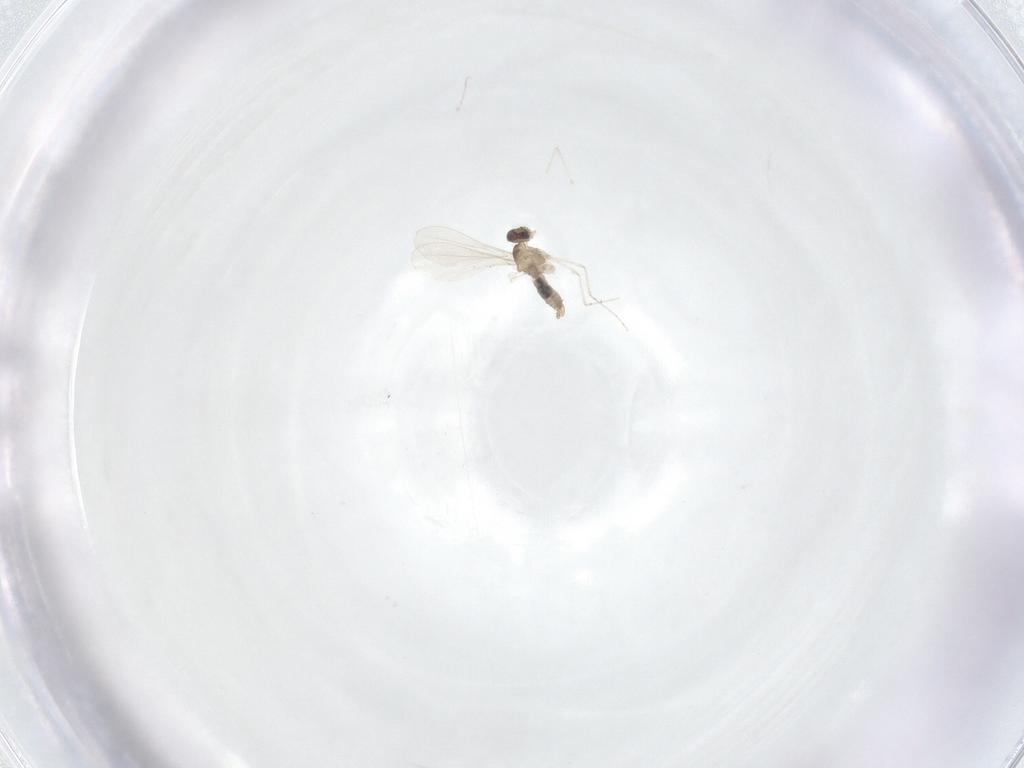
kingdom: Animalia
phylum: Arthropoda
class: Insecta
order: Diptera
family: Cecidomyiidae
